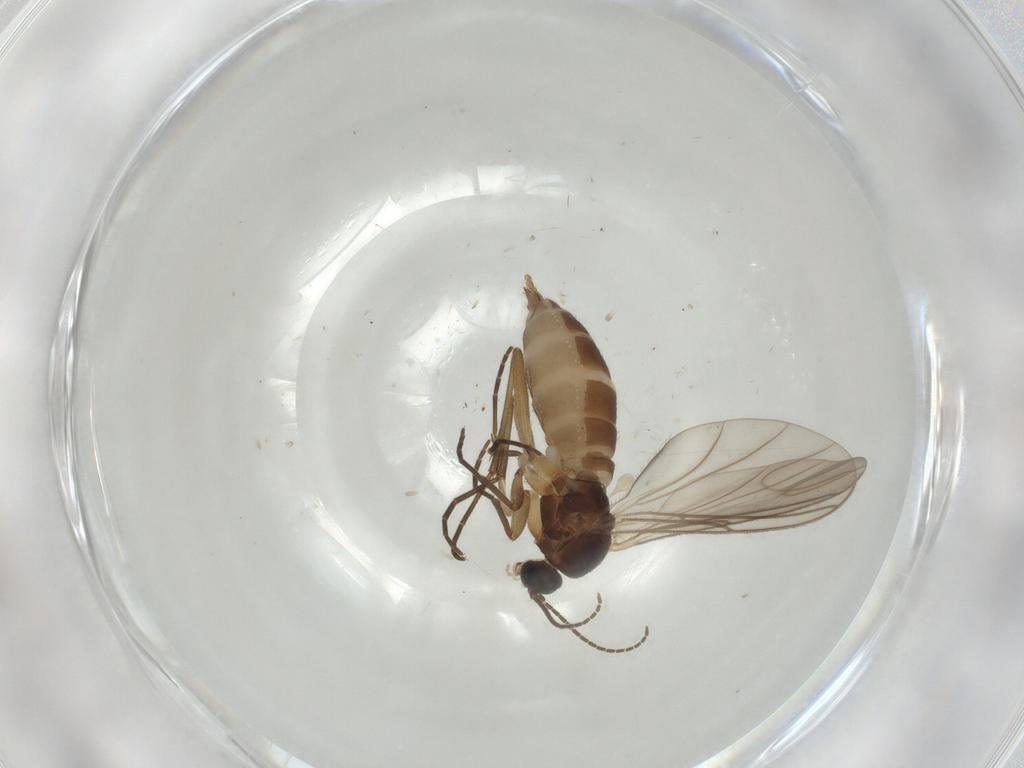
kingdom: Animalia
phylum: Arthropoda
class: Insecta
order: Diptera
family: Sciaridae
